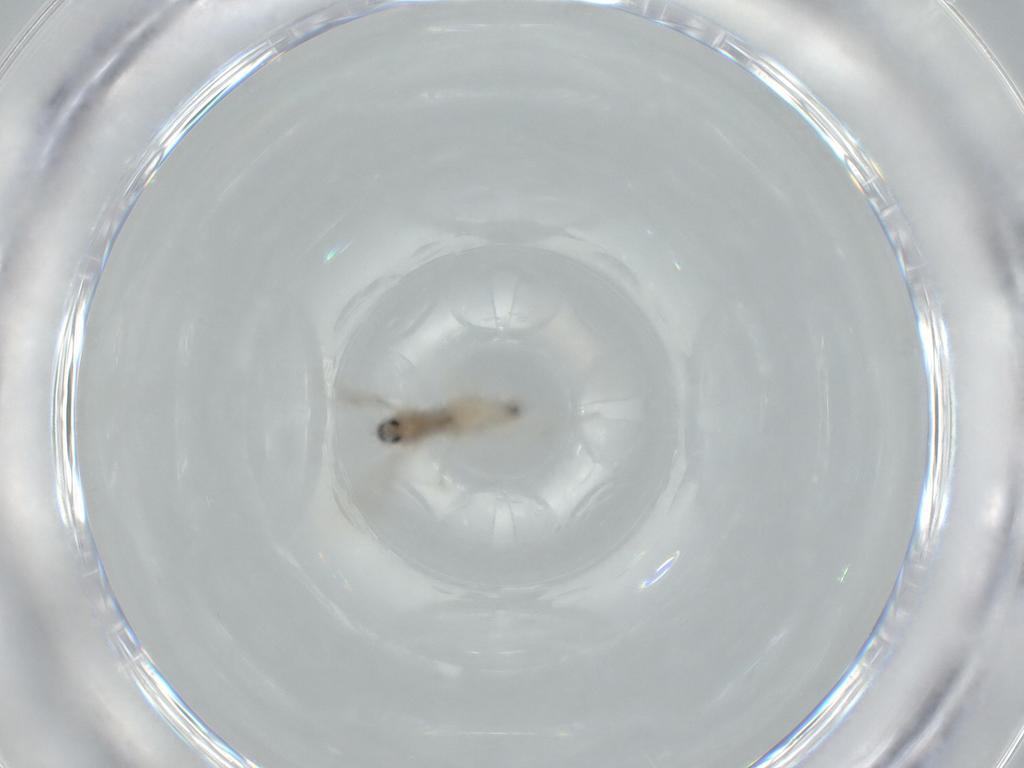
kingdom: Animalia
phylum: Arthropoda
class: Insecta
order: Diptera
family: Cecidomyiidae
